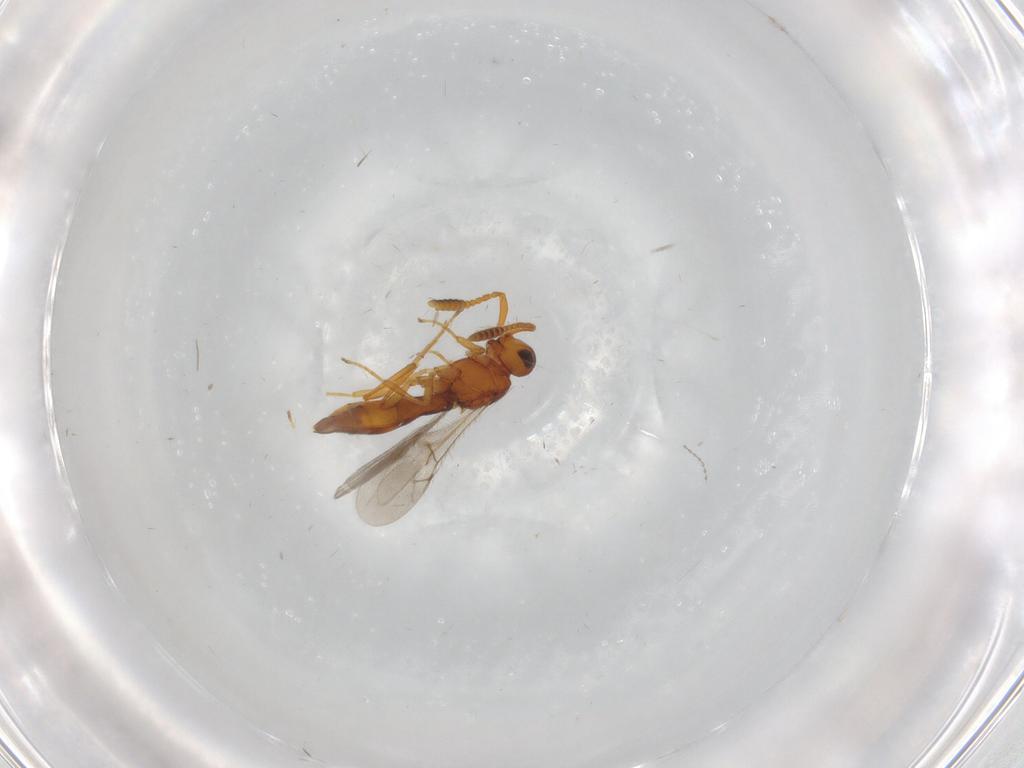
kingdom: Animalia
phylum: Arthropoda
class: Insecta
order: Hymenoptera
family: Scelionidae
